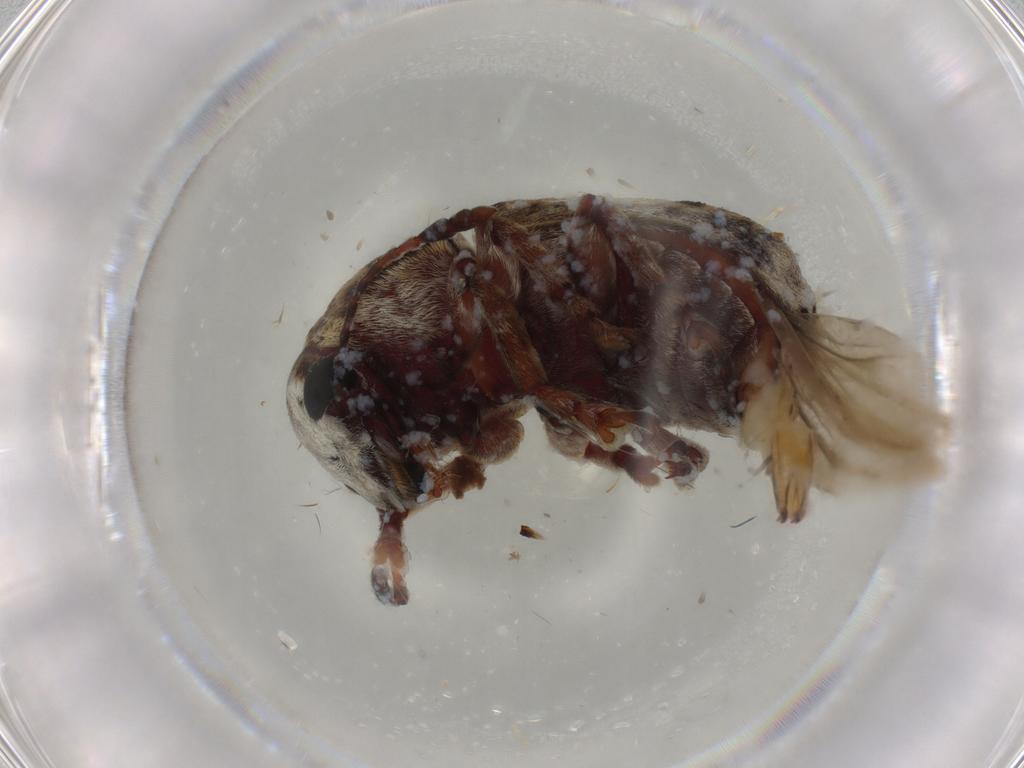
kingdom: Animalia
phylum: Arthropoda
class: Insecta
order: Coleoptera
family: Anthribidae
